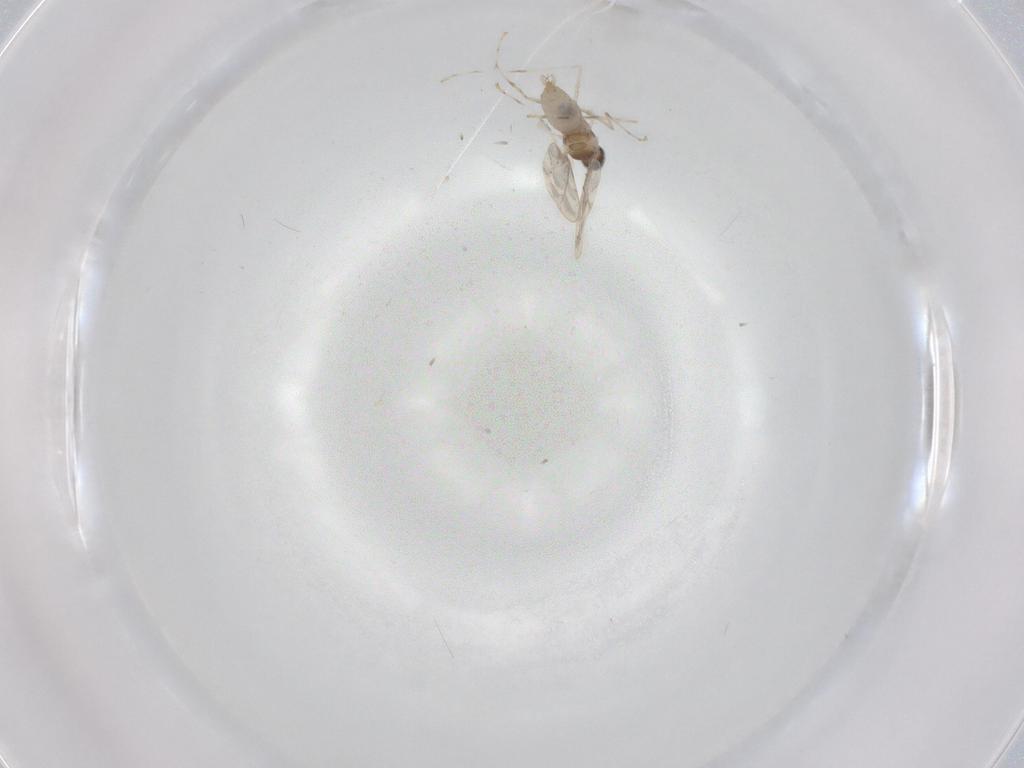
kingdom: Animalia
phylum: Arthropoda
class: Insecta
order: Diptera
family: Cecidomyiidae
